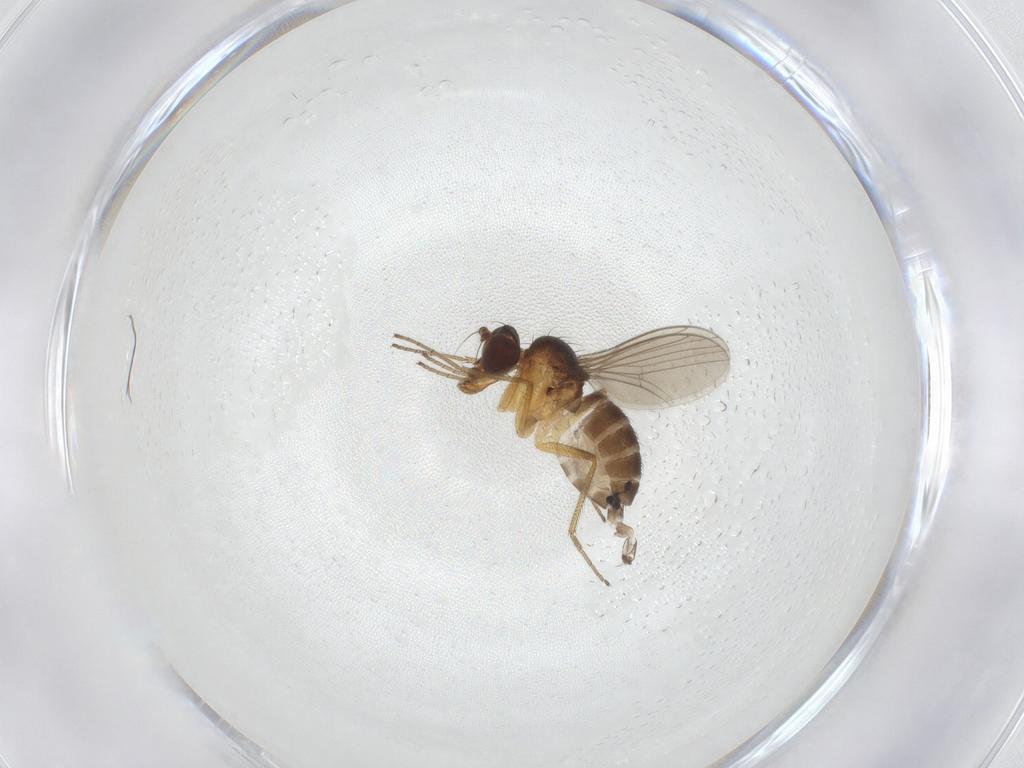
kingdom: Animalia
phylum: Arthropoda
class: Insecta
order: Diptera
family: Dolichopodidae
